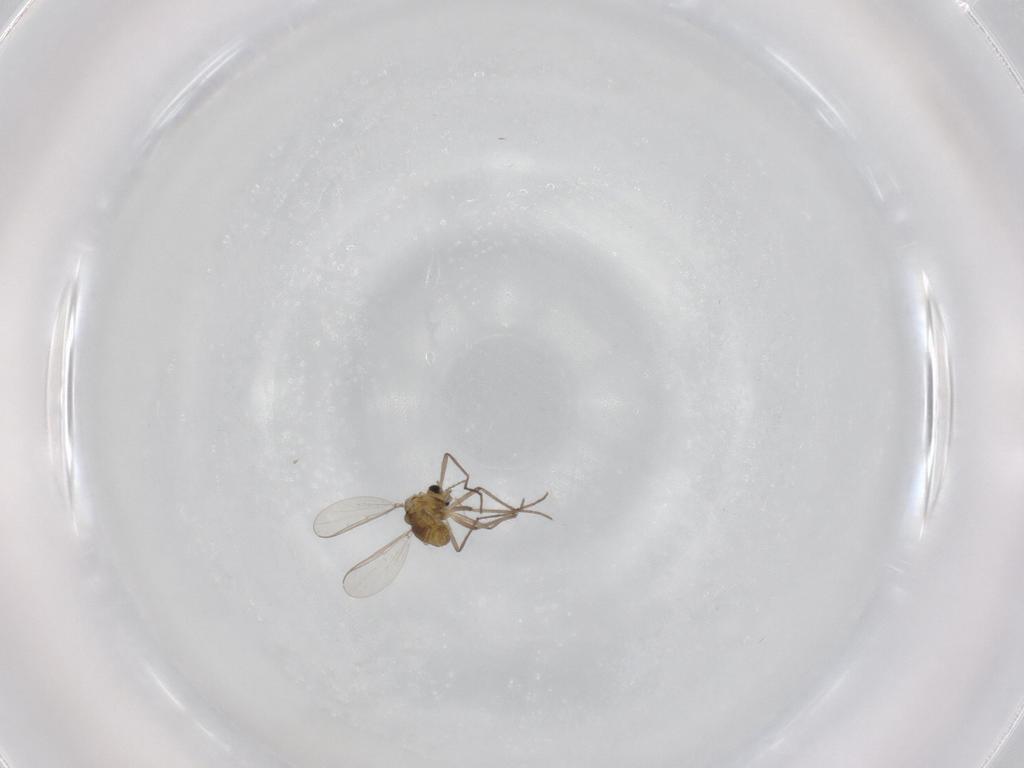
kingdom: Animalia
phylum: Arthropoda
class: Insecta
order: Diptera
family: Chironomidae
